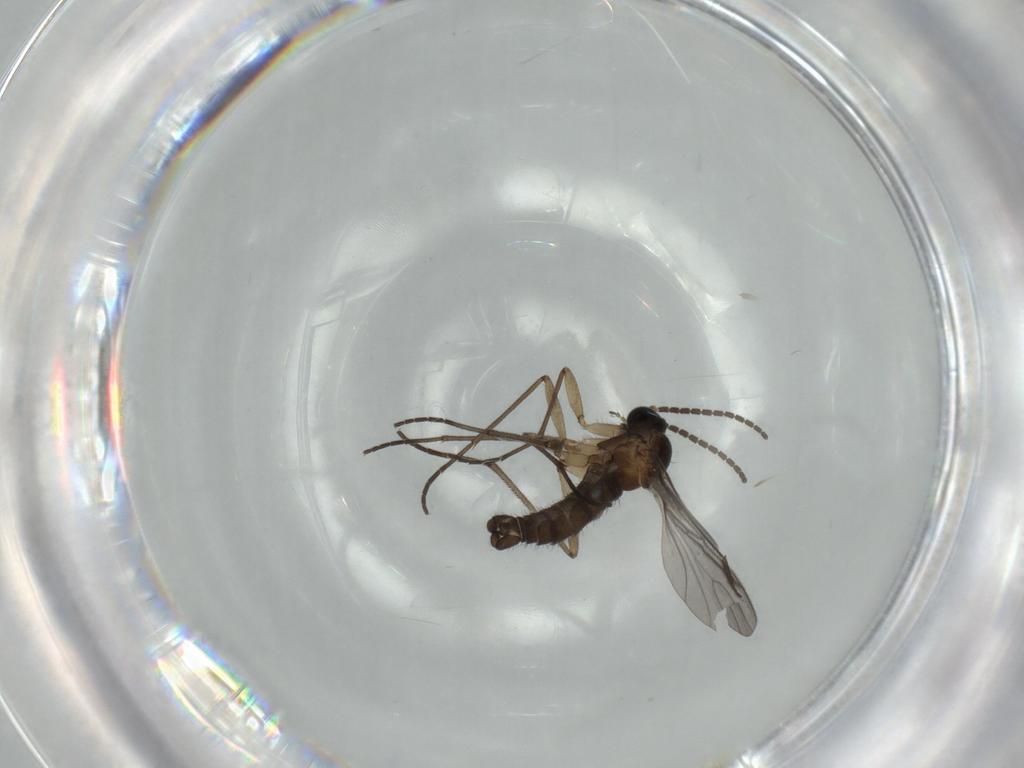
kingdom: Animalia
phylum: Arthropoda
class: Insecta
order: Diptera
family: Sciaridae
